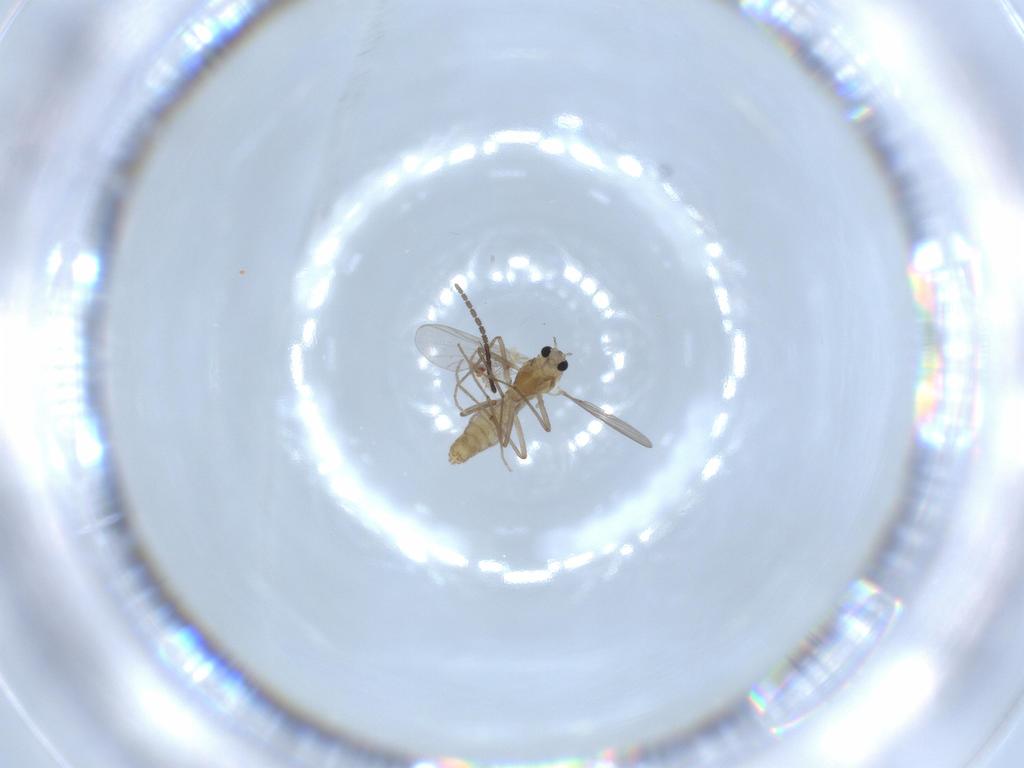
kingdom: Animalia
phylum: Arthropoda
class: Insecta
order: Diptera
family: Chironomidae
